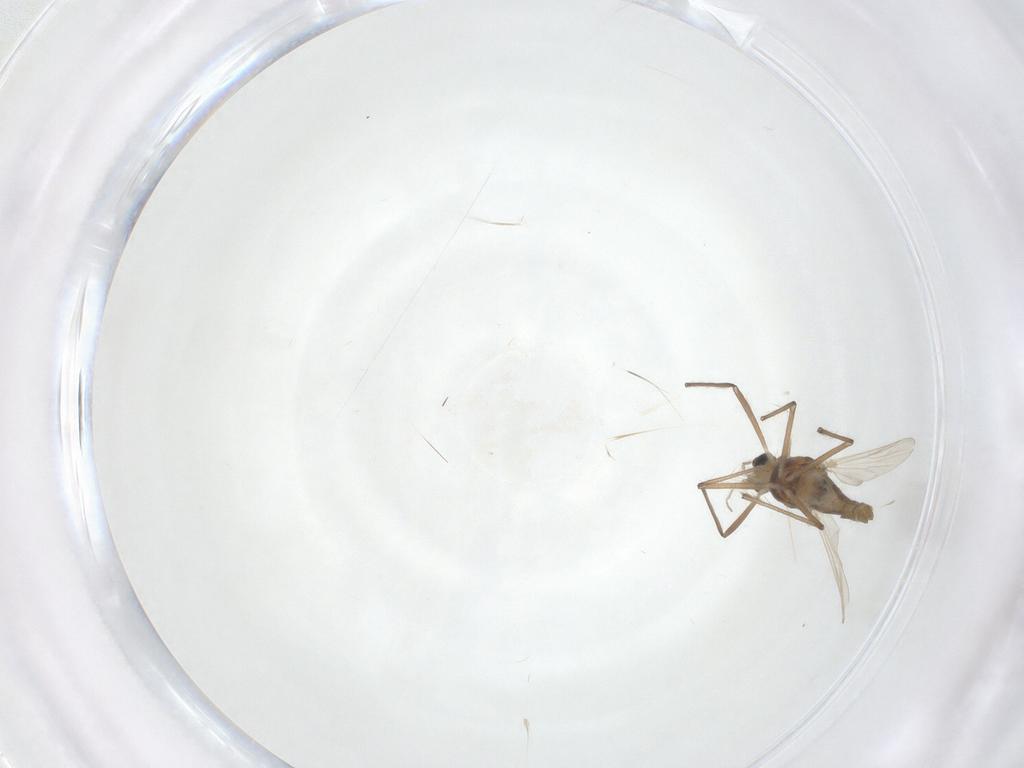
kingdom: Animalia
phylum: Arthropoda
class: Insecta
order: Diptera
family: Chironomidae
